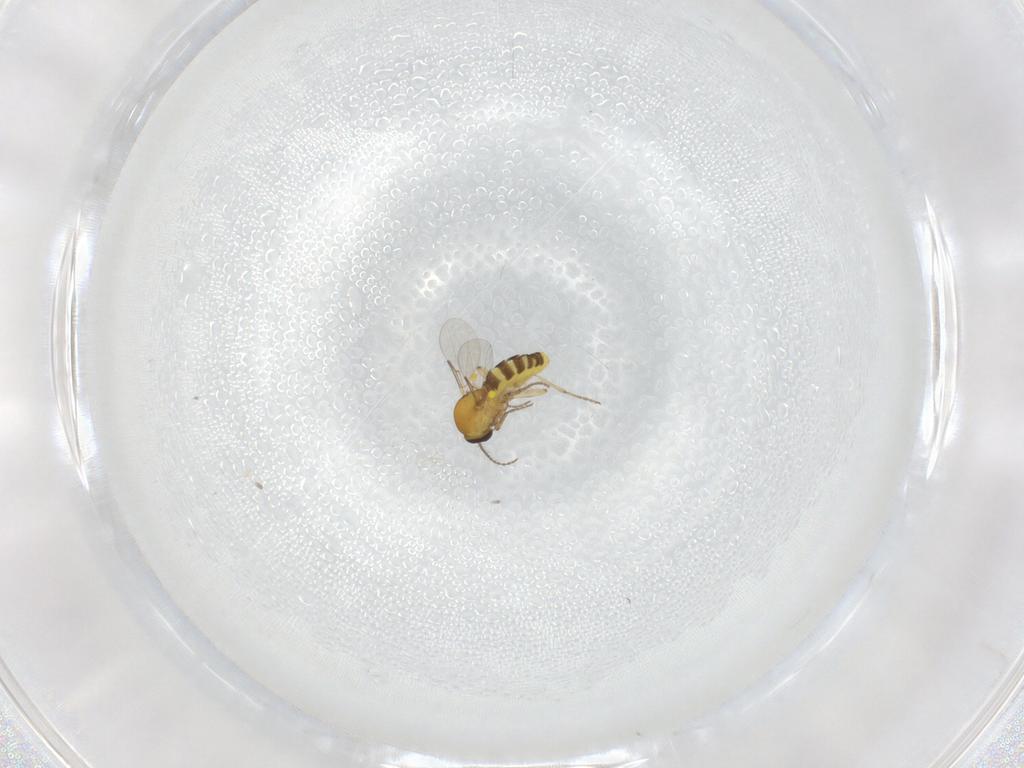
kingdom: Animalia
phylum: Arthropoda
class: Insecta
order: Diptera
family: Ceratopogonidae
